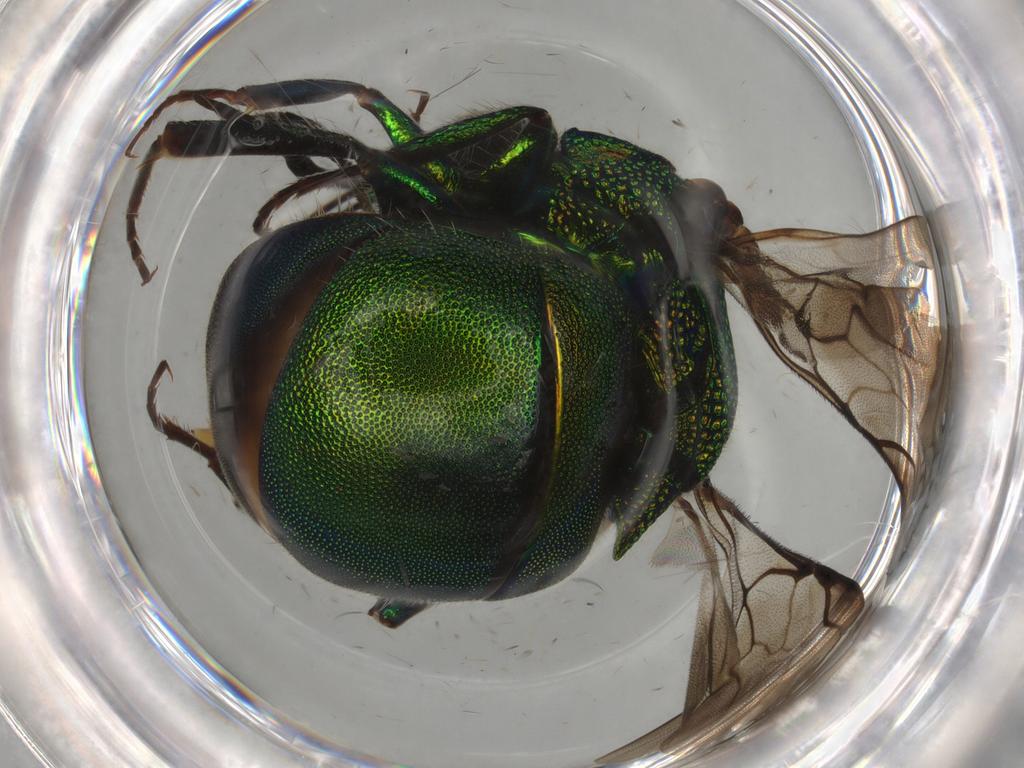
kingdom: Animalia
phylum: Arthropoda
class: Insecta
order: Hymenoptera
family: Chrysididae
